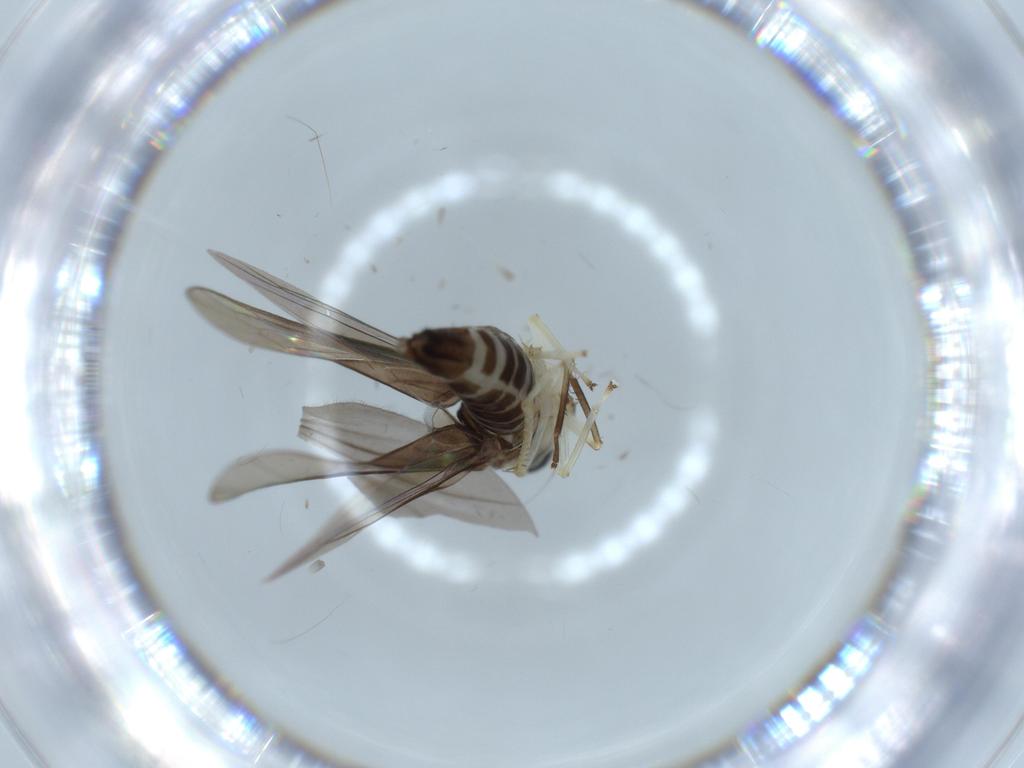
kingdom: Animalia
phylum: Arthropoda
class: Insecta
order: Hemiptera
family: Cicadellidae
